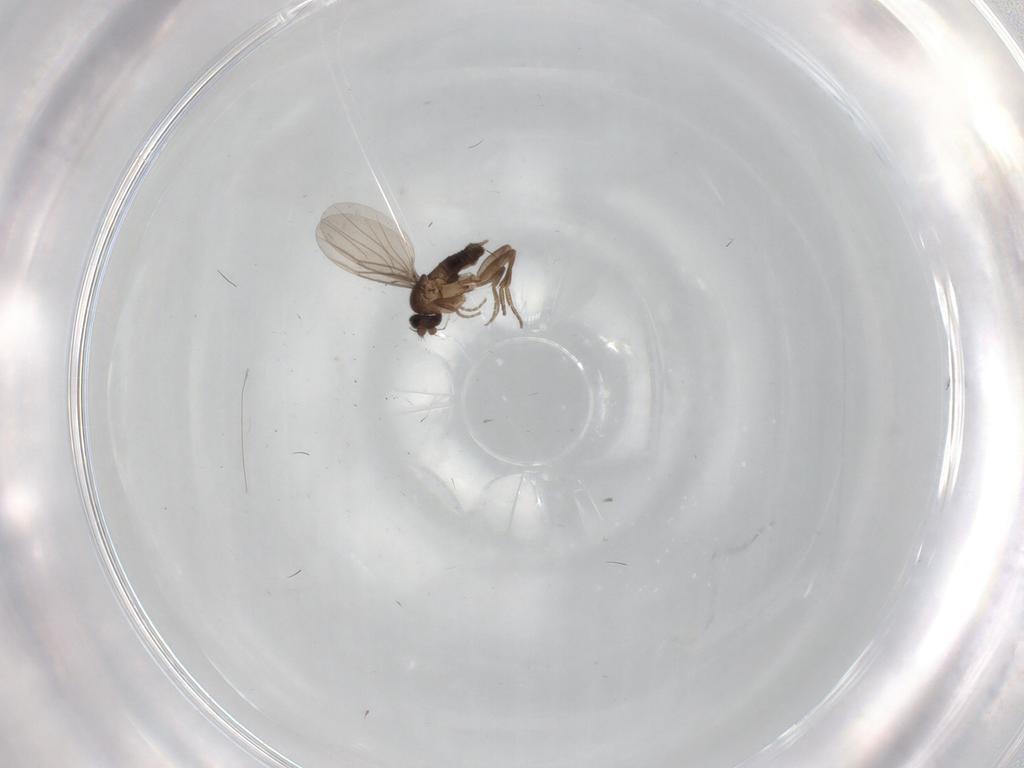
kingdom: Animalia
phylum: Arthropoda
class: Insecta
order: Diptera
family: Phoridae
